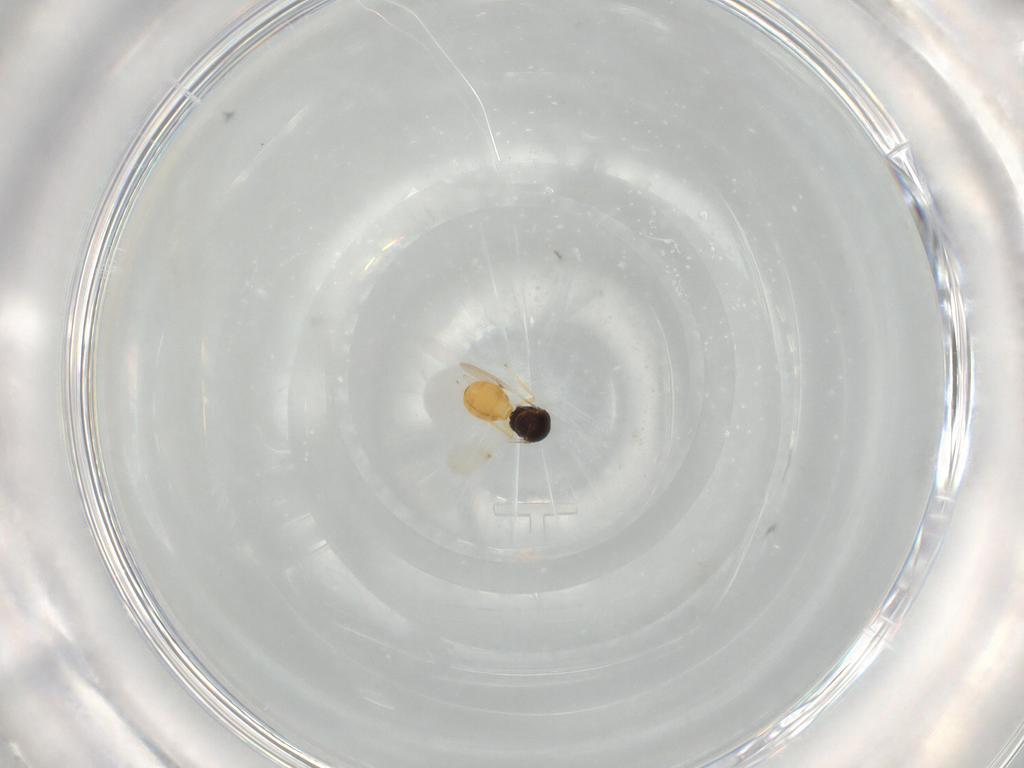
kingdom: Animalia
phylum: Arthropoda
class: Insecta
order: Hymenoptera
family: Scelionidae
